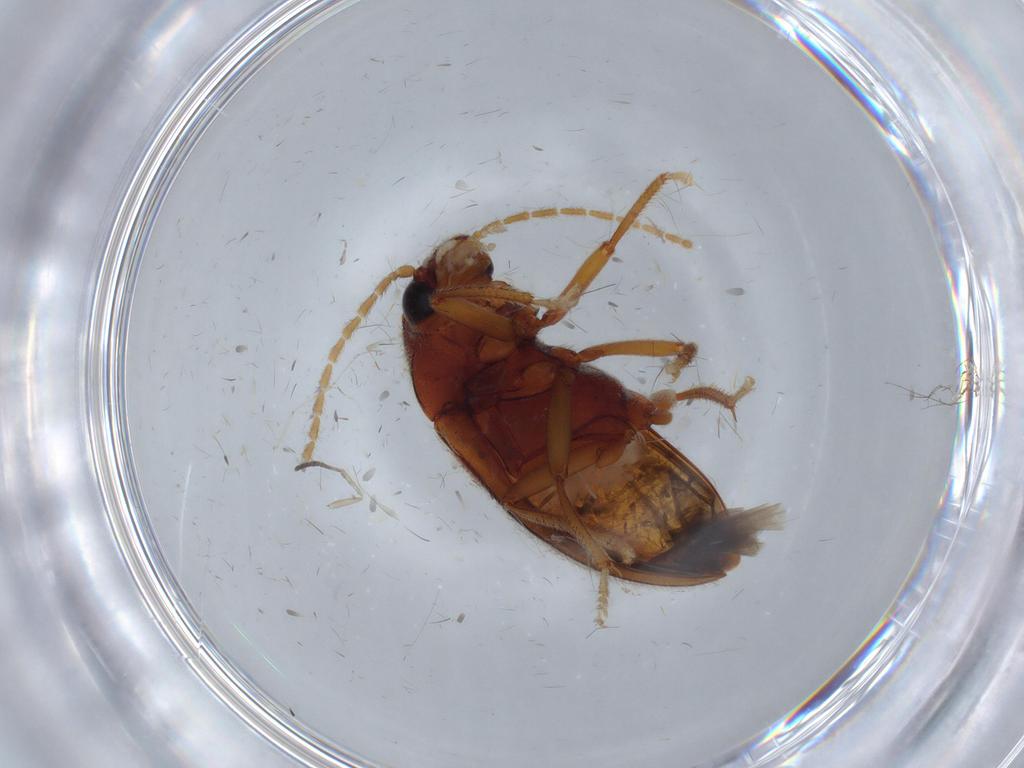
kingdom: Animalia
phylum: Arthropoda
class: Insecta
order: Coleoptera
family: Ptilodactylidae
